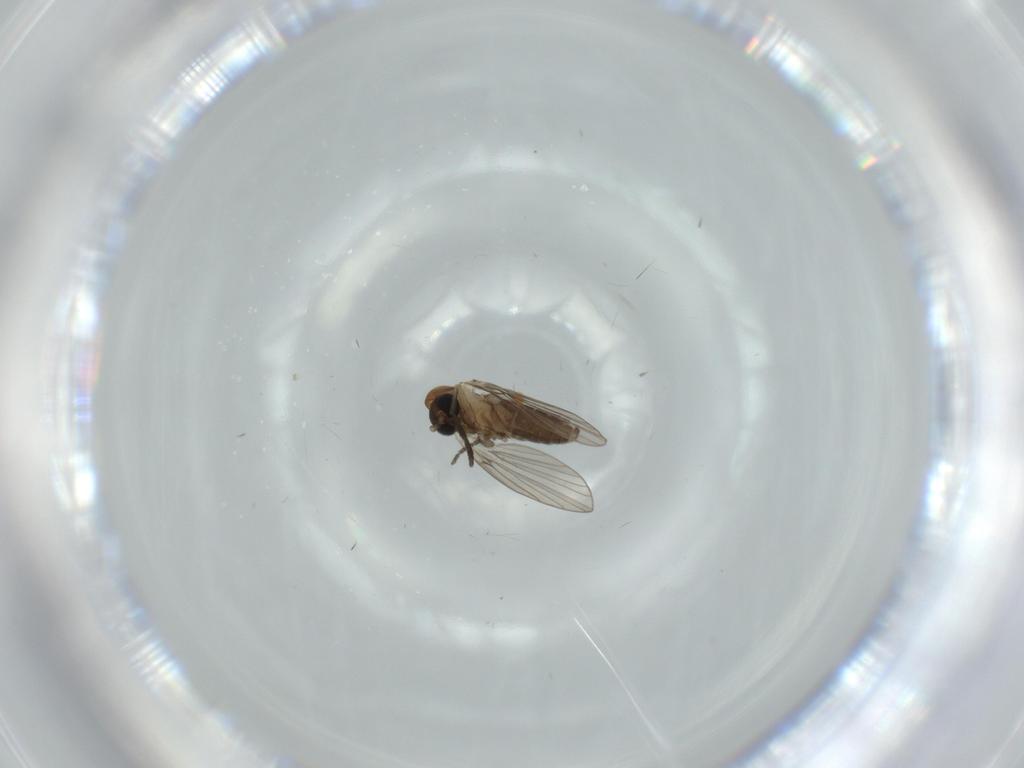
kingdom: Animalia
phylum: Arthropoda
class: Insecta
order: Diptera
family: Psychodidae
